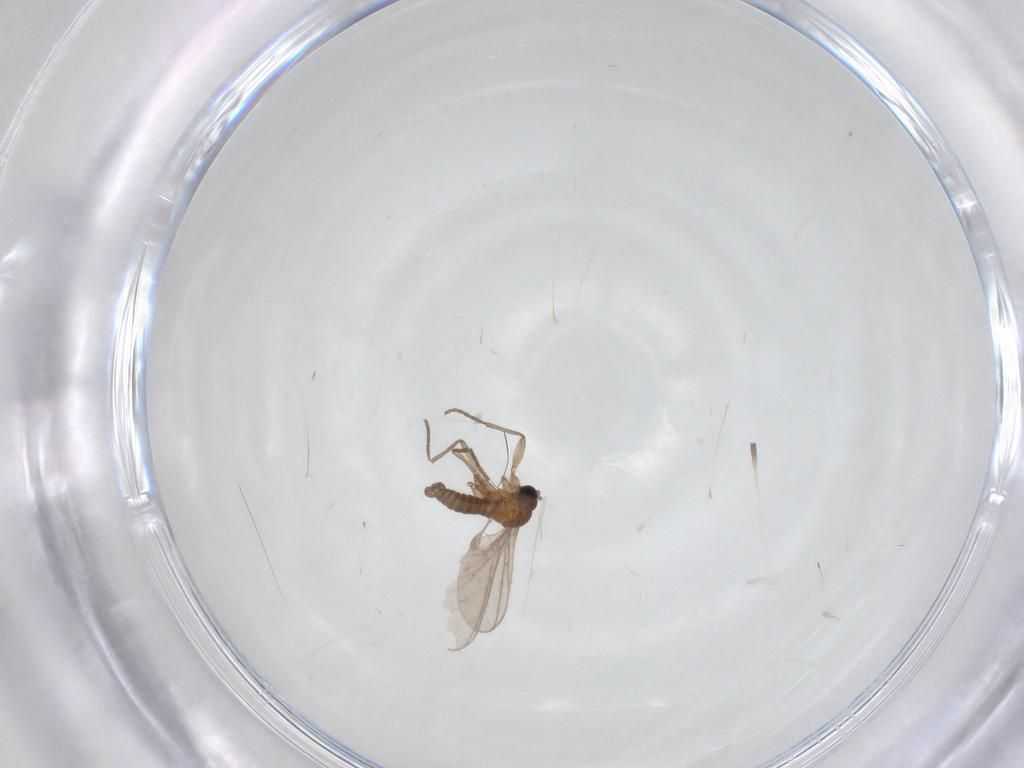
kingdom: Animalia
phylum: Arthropoda
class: Insecta
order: Diptera
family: Sciaridae
